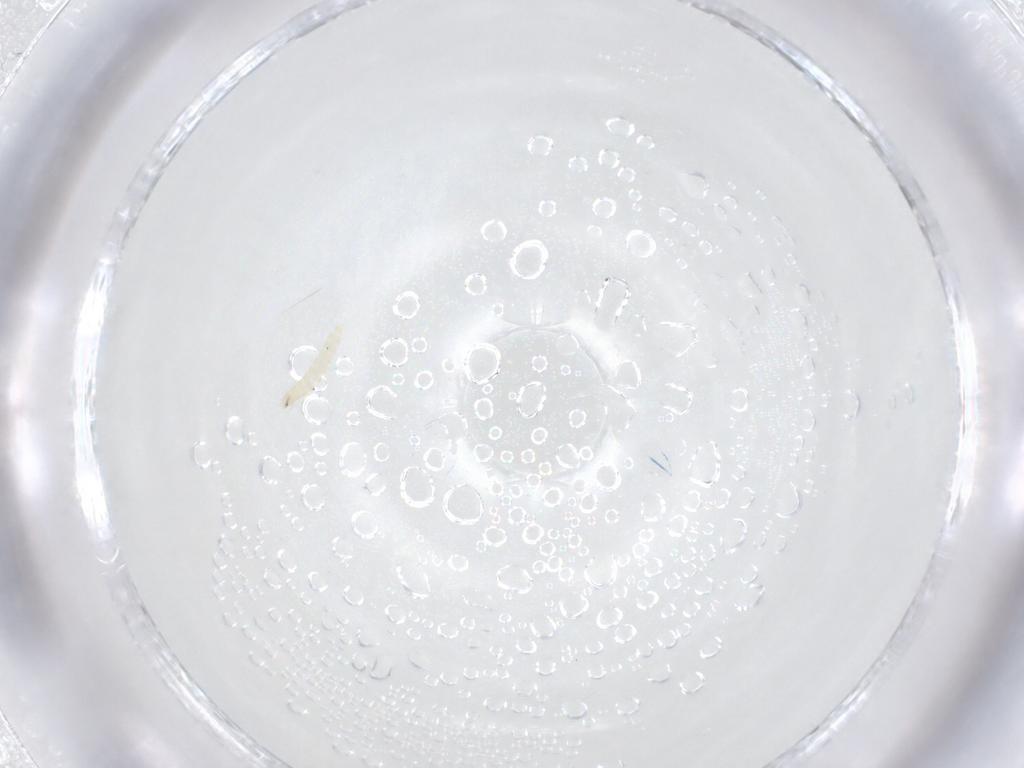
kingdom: Animalia
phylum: Arthropoda
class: Insecta
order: Diptera
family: Tachinidae
